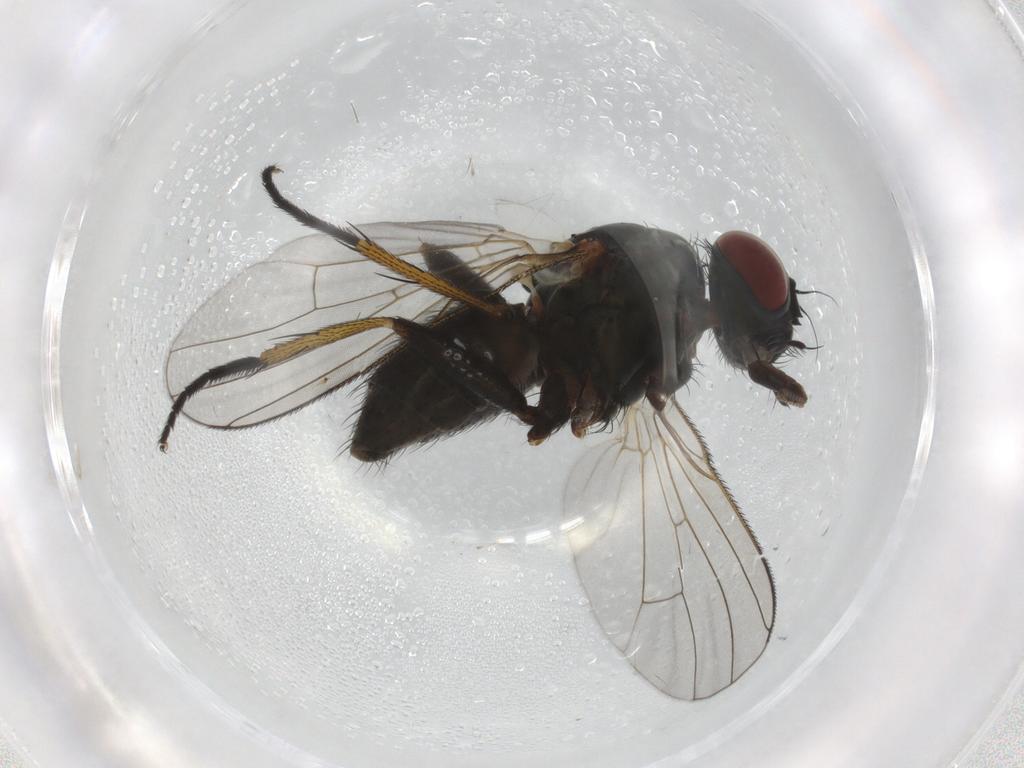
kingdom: Animalia
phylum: Arthropoda
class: Insecta
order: Diptera
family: Muscidae
